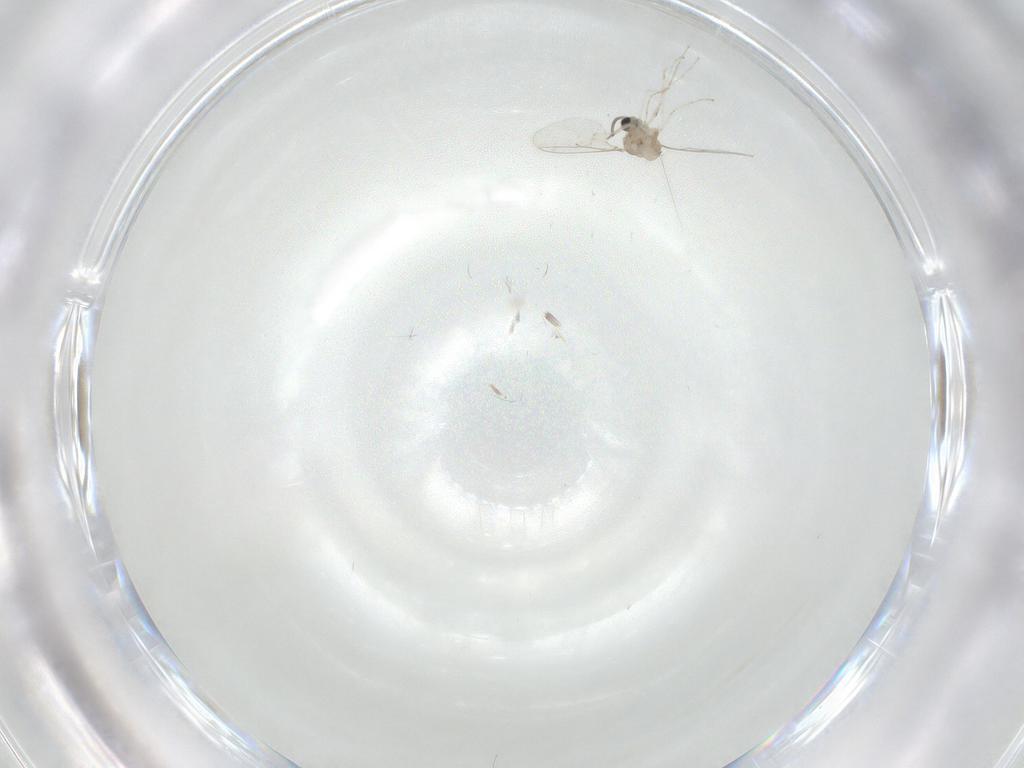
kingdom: Animalia
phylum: Arthropoda
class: Insecta
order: Diptera
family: Cecidomyiidae
